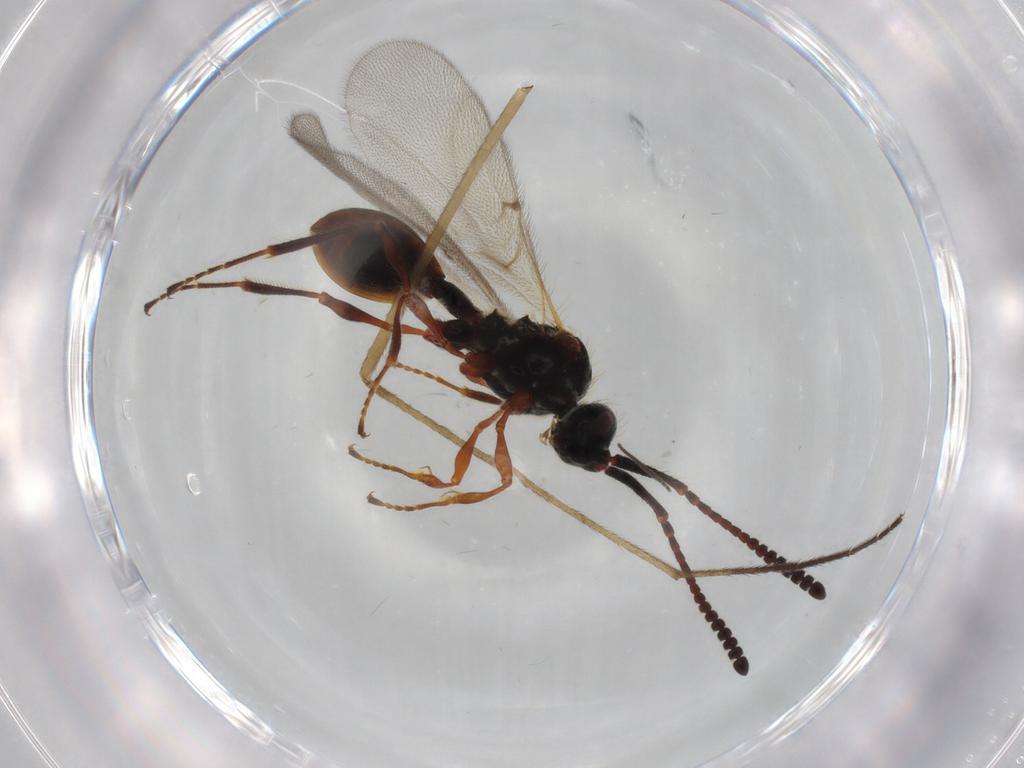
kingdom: Animalia
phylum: Arthropoda
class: Insecta
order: Hymenoptera
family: Diapriidae
